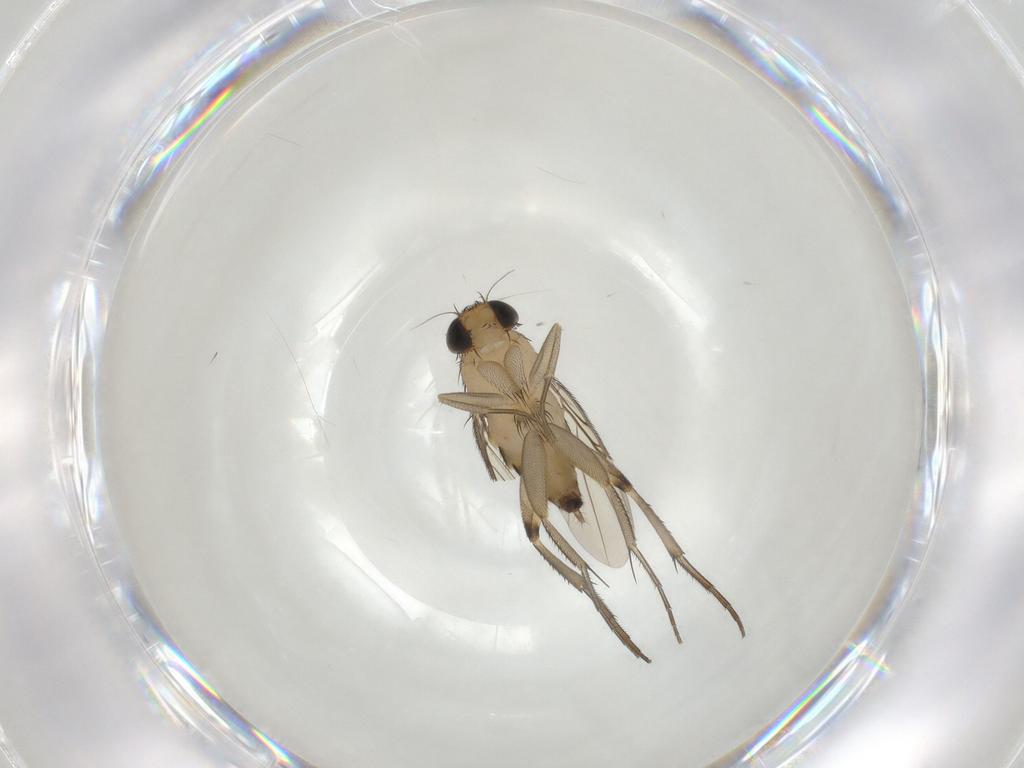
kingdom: Animalia
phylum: Arthropoda
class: Insecta
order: Diptera
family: Phoridae
